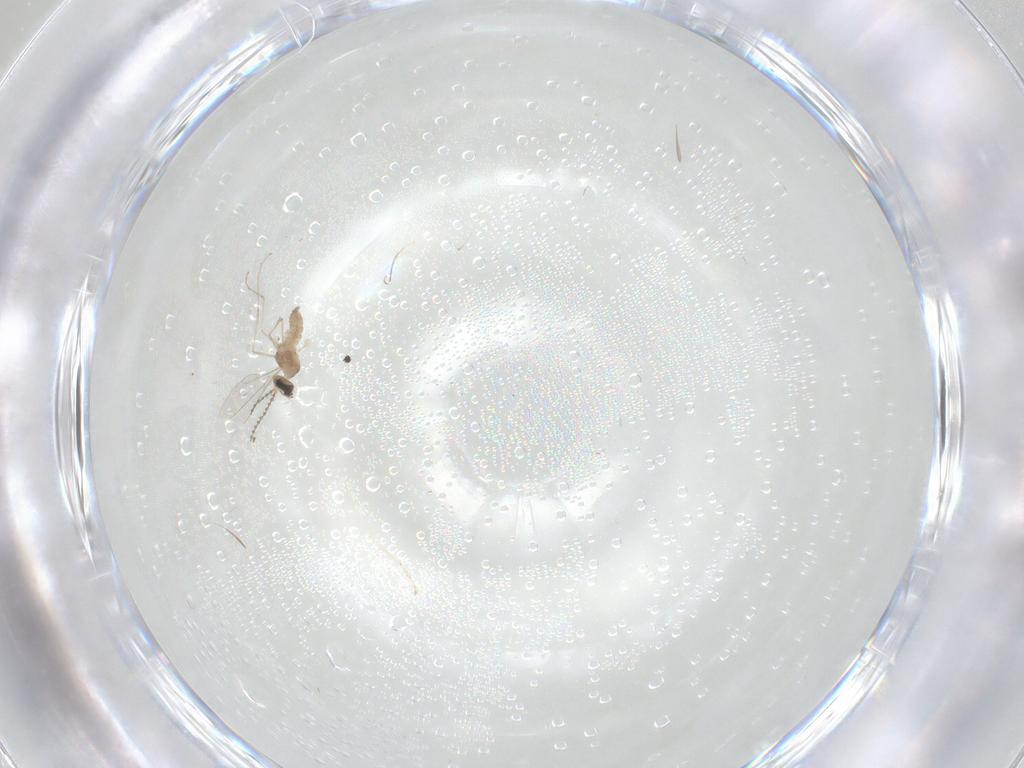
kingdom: Animalia
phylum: Arthropoda
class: Insecta
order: Diptera
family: Cecidomyiidae
